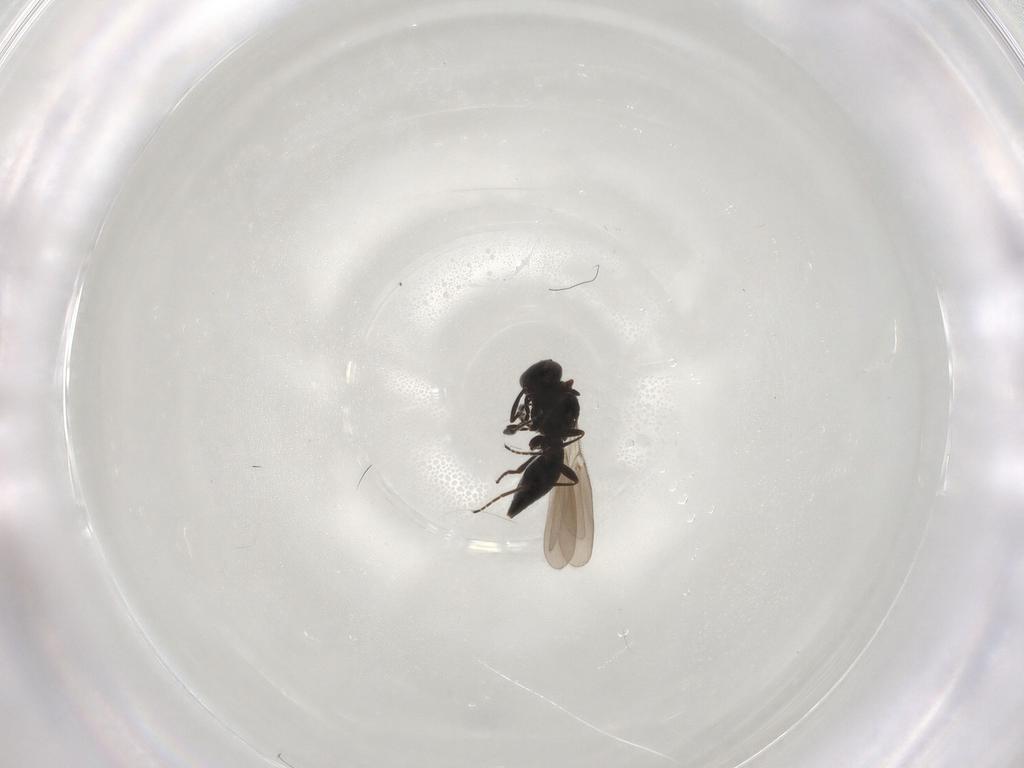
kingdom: Animalia
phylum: Arthropoda
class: Insecta
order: Hymenoptera
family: Platygastridae
